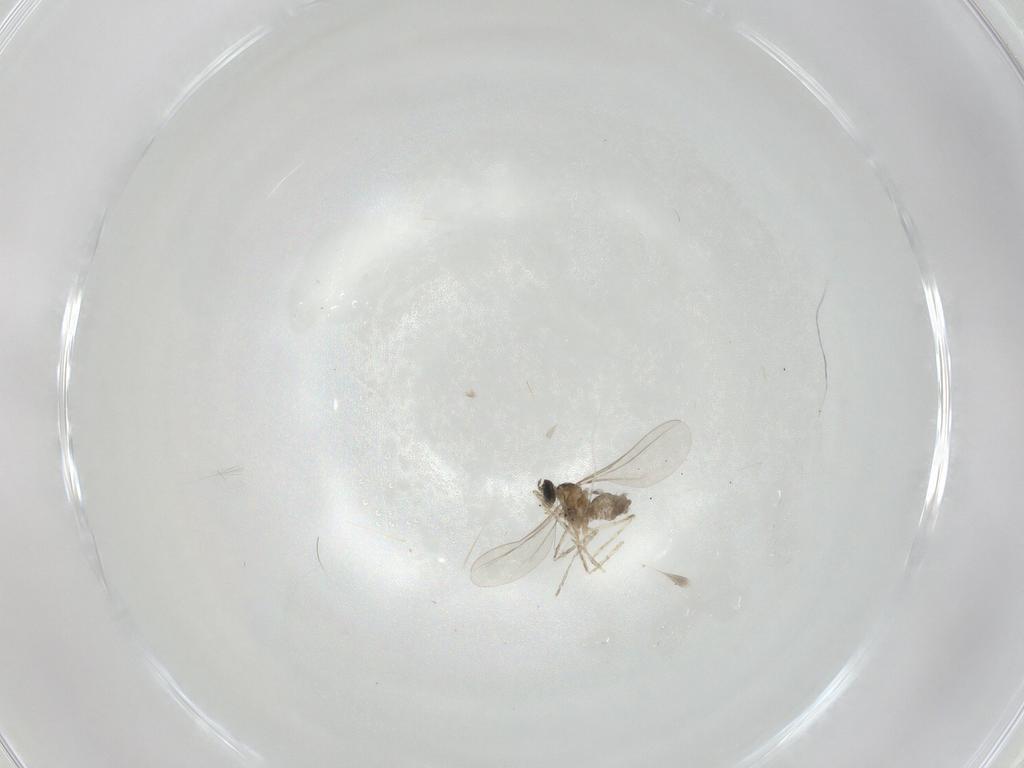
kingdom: Animalia
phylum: Arthropoda
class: Insecta
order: Diptera
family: Cecidomyiidae
